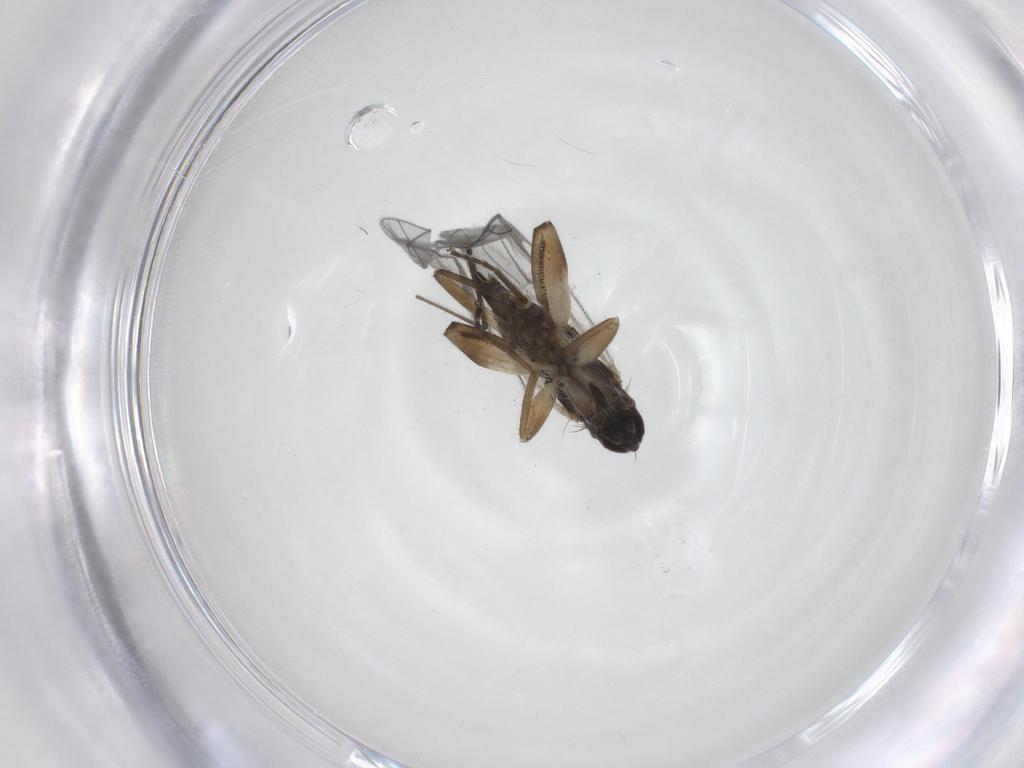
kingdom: Animalia
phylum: Arthropoda
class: Insecta
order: Diptera
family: Hybotidae
